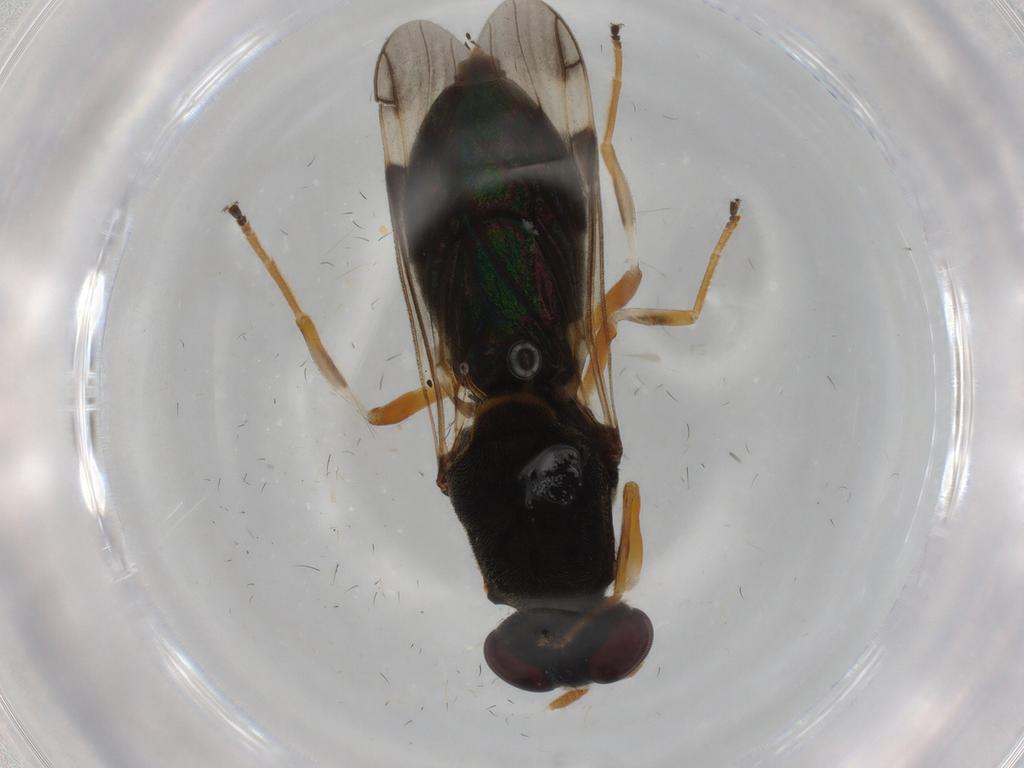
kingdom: Animalia
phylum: Arthropoda
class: Insecta
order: Diptera
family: Stratiomyidae
